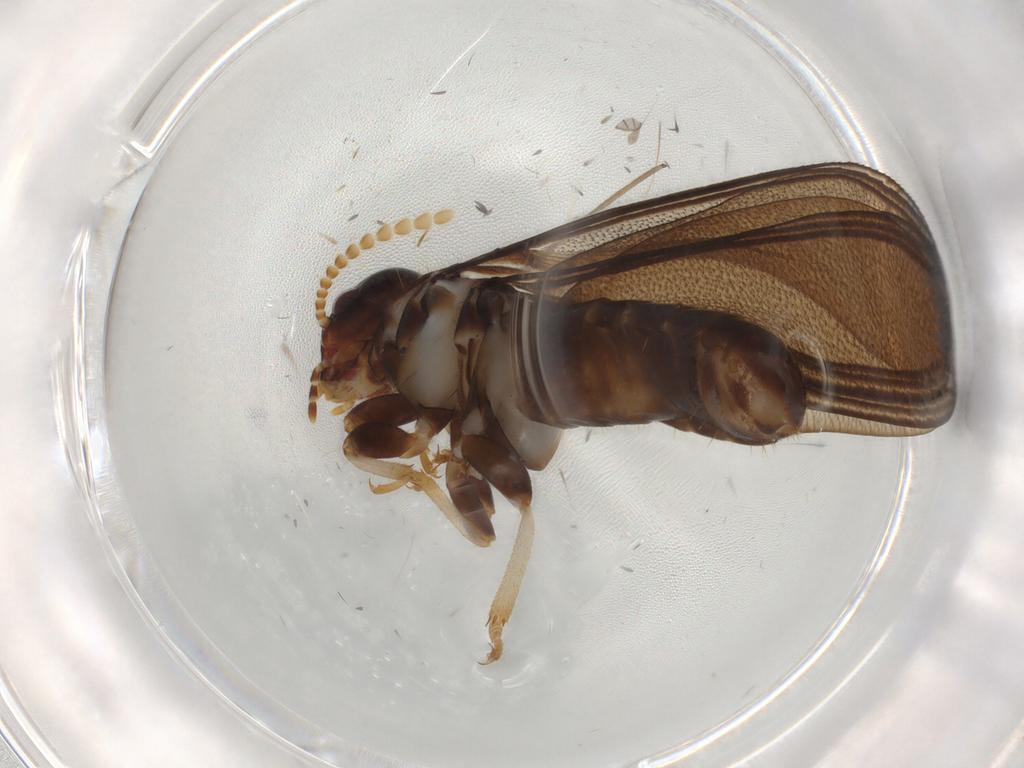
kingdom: Animalia
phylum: Arthropoda
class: Insecta
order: Blattodea
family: Kalotermitidae
